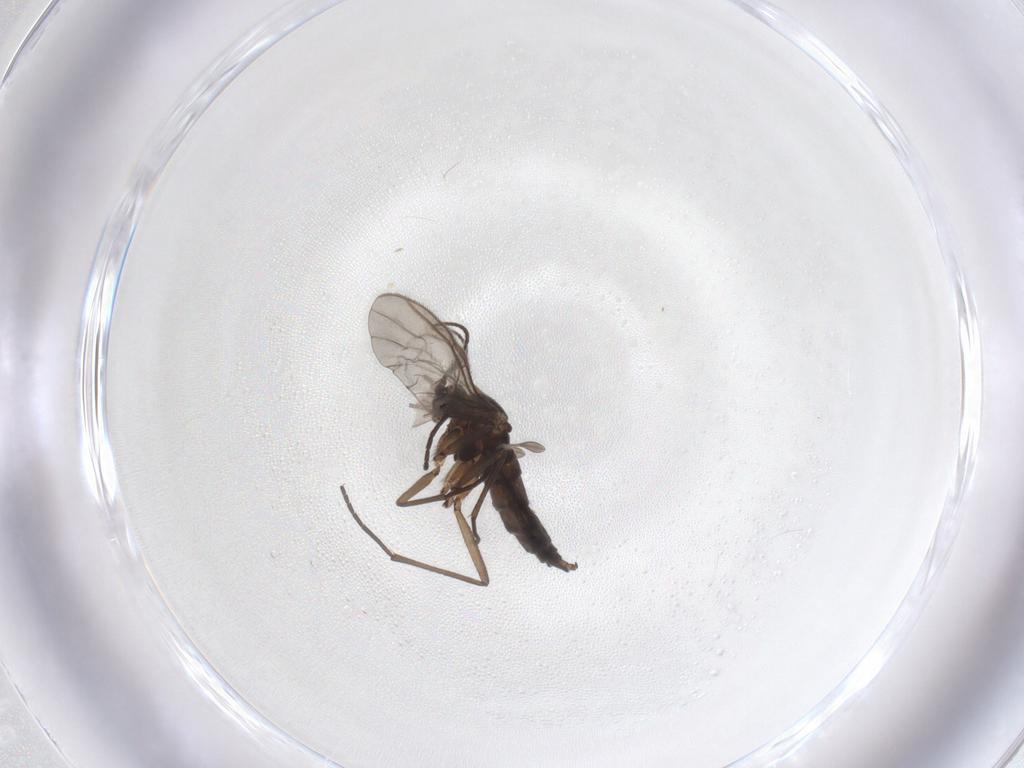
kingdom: Animalia
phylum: Arthropoda
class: Insecta
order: Diptera
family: Sciaridae
